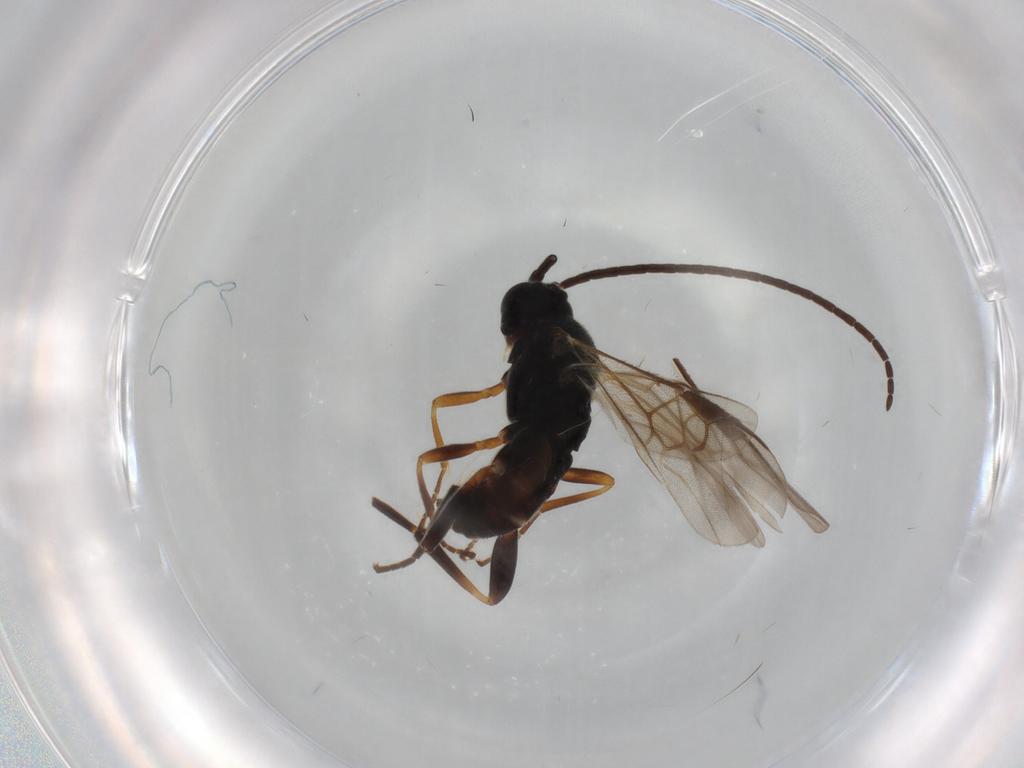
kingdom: Animalia
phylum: Arthropoda
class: Insecta
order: Hymenoptera
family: Braconidae
